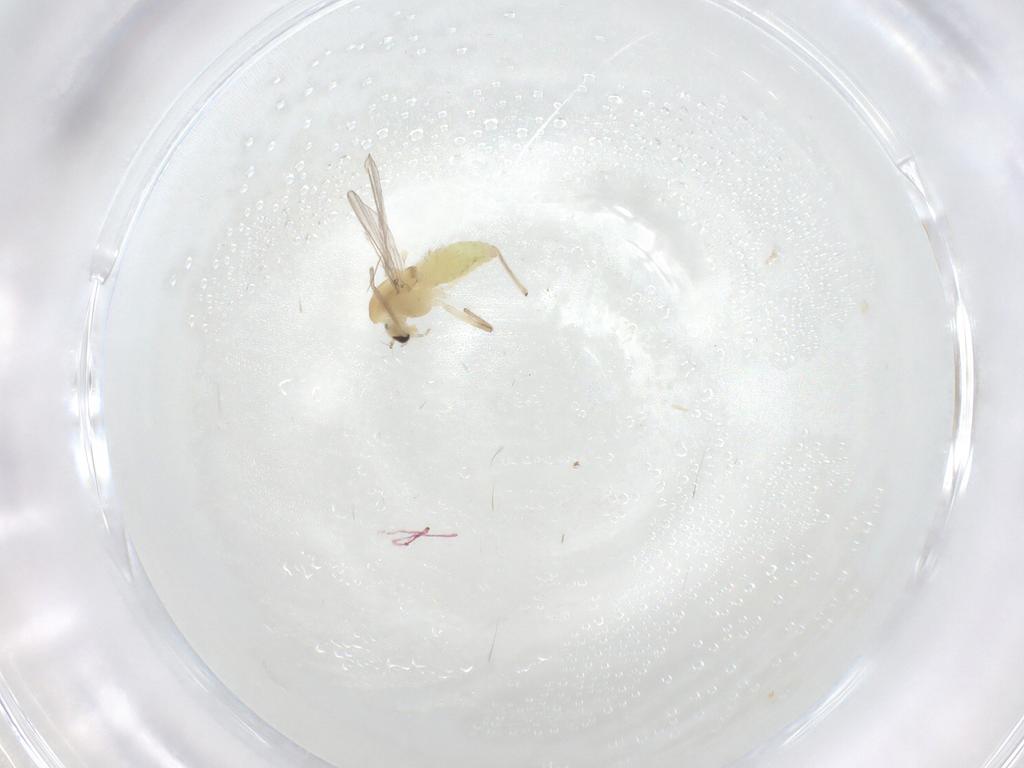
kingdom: Animalia
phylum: Arthropoda
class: Insecta
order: Diptera
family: Chironomidae
